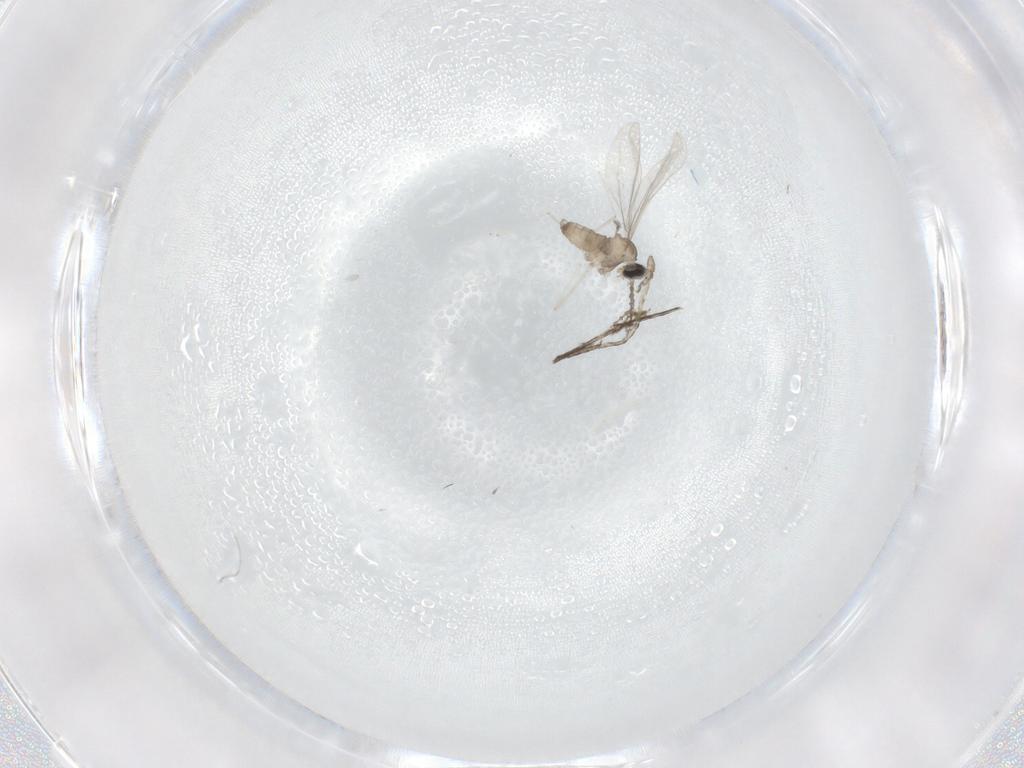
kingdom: Animalia
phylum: Arthropoda
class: Insecta
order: Diptera
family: Cecidomyiidae
